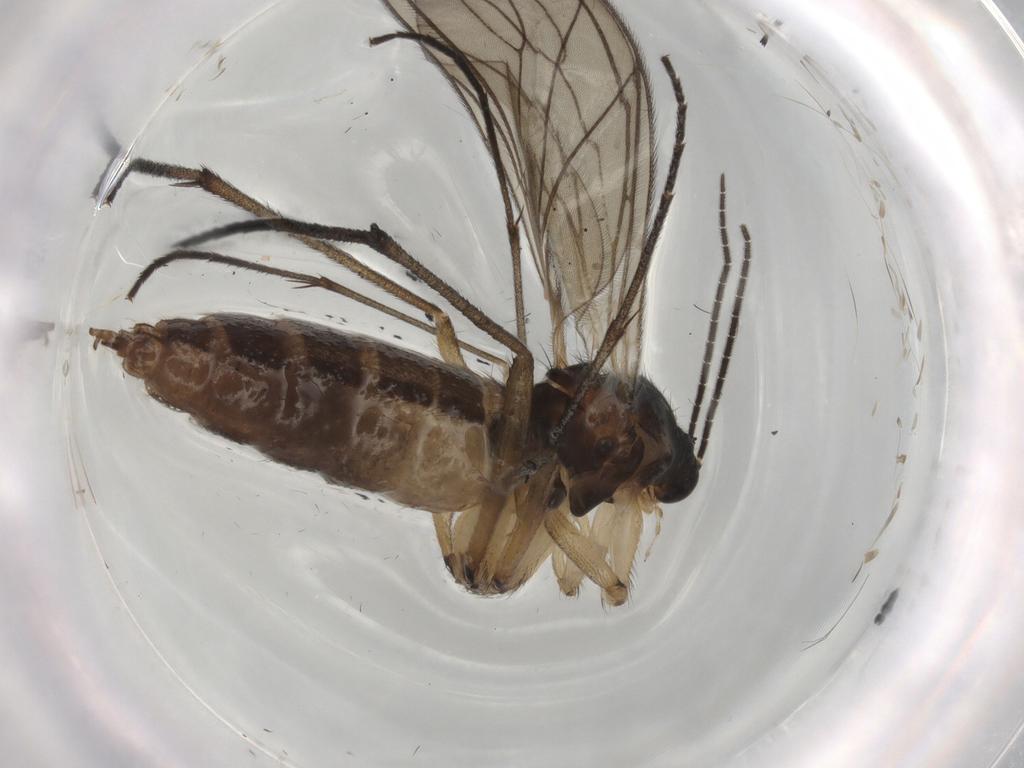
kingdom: Animalia
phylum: Arthropoda
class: Insecta
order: Diptera
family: Sciaridae
